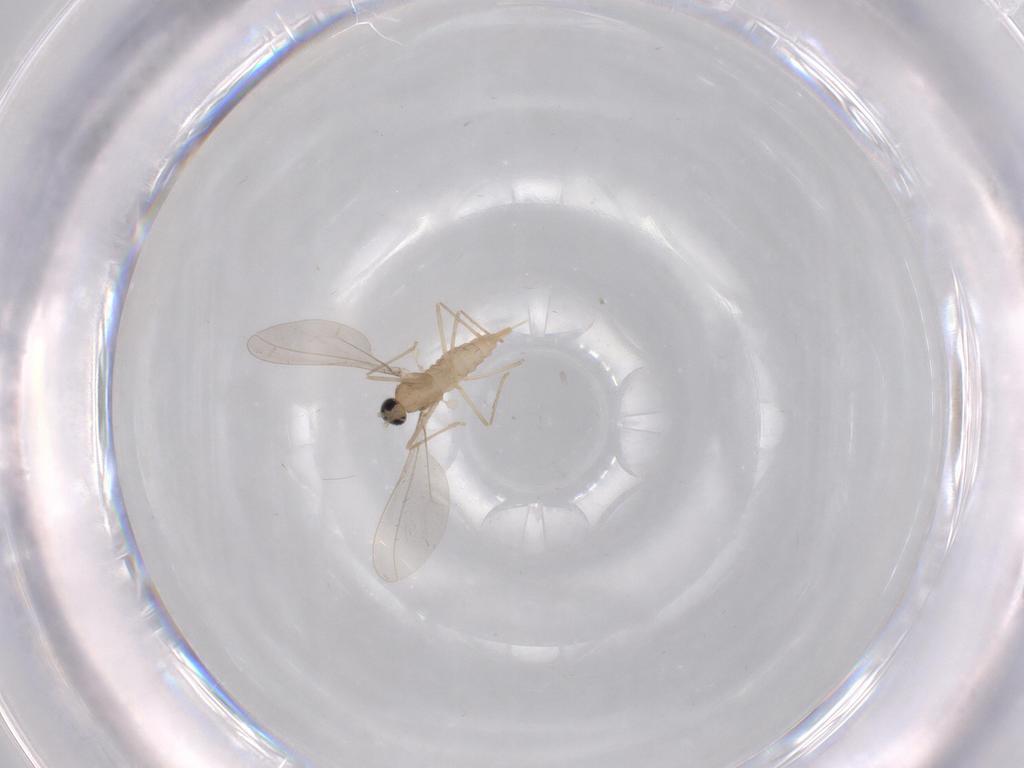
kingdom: Animalia
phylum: Arthropoda
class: Insecta
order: Diptera
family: Cecidomyiidae
